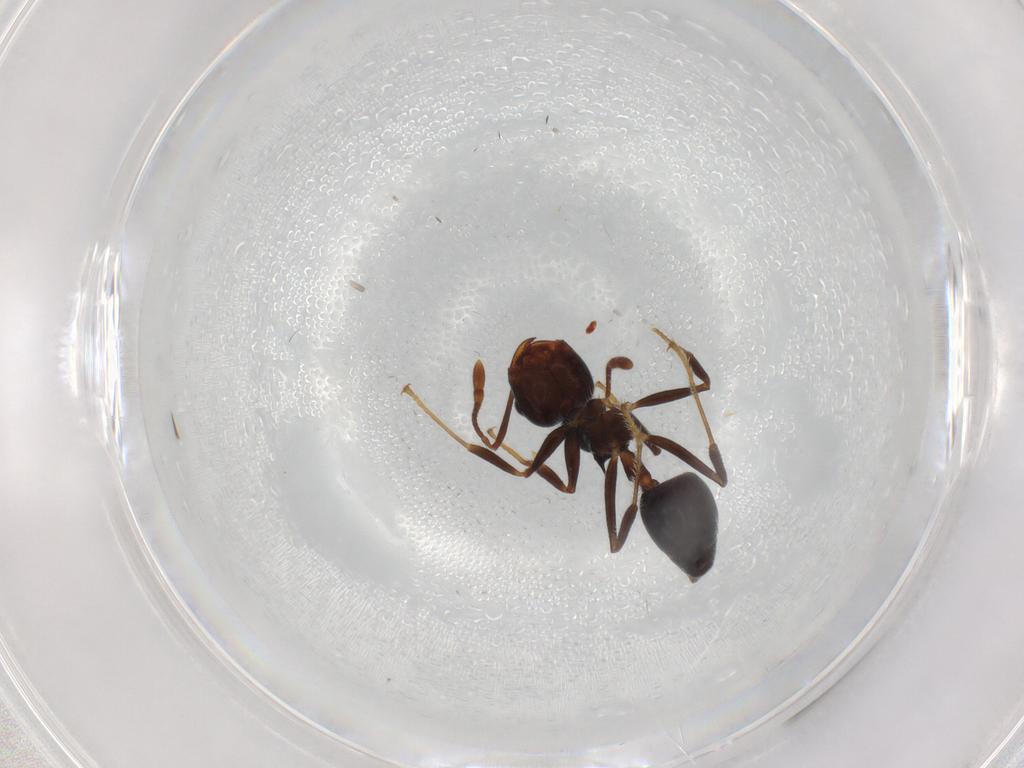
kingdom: Animalia
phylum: Arthropoda
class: Insecta
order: Hymenoptera
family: Formicidae
